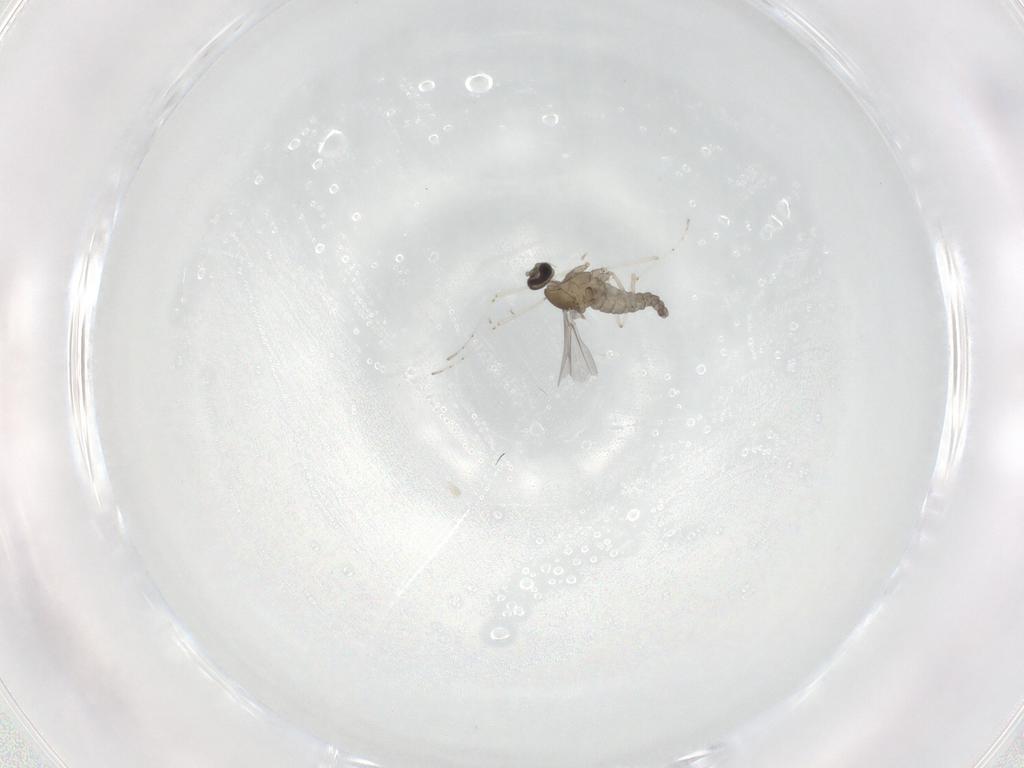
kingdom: Animalia
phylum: Arthropoda
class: Insecta
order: Diptera
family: Cecidomyiidae
